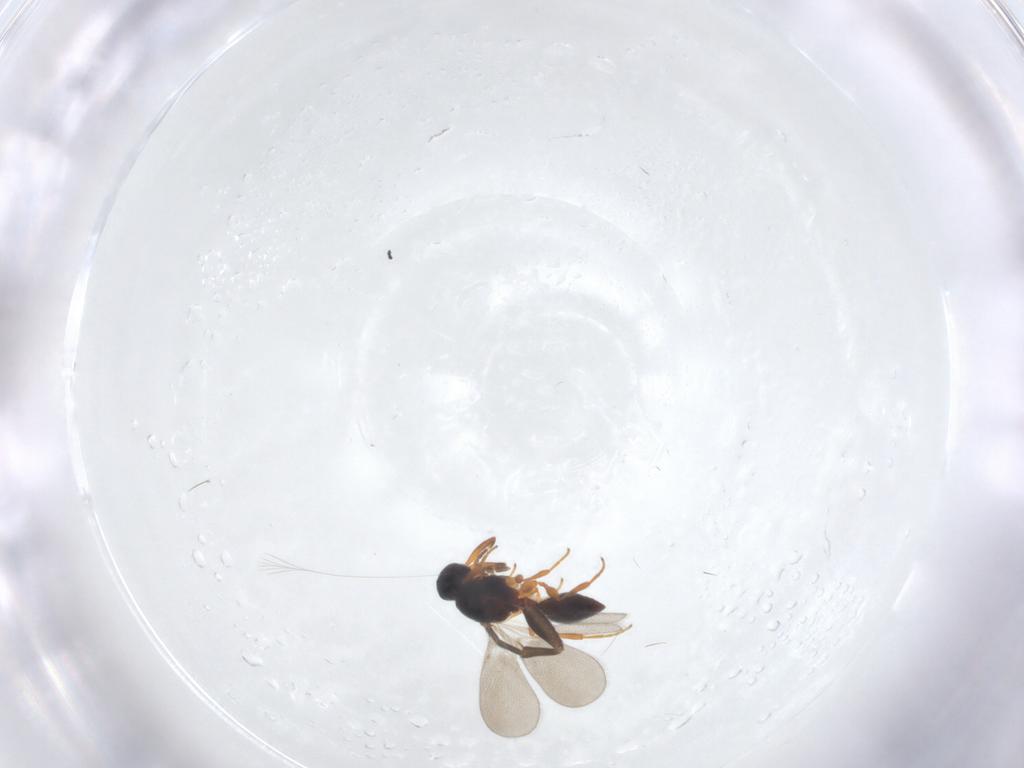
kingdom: Animalia
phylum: Arthropoda
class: Insecta
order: Hymenoptera
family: Platygastridae
